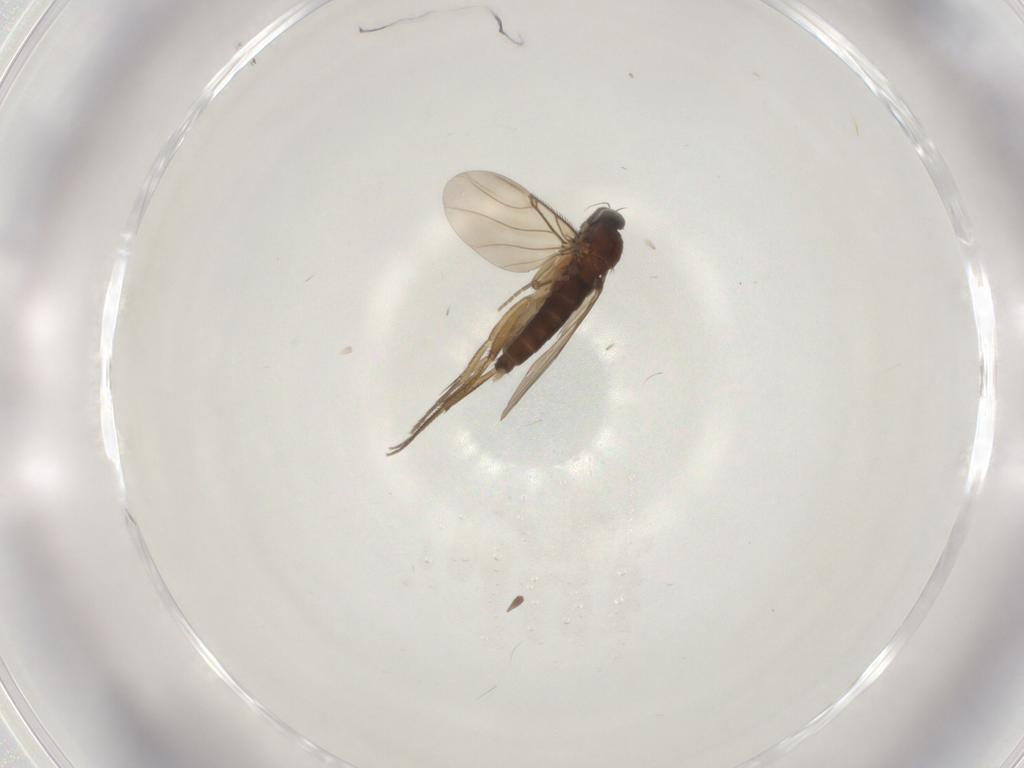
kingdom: Animalia
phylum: Arthropoda
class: Insecta
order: Diptera
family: Phoridae
